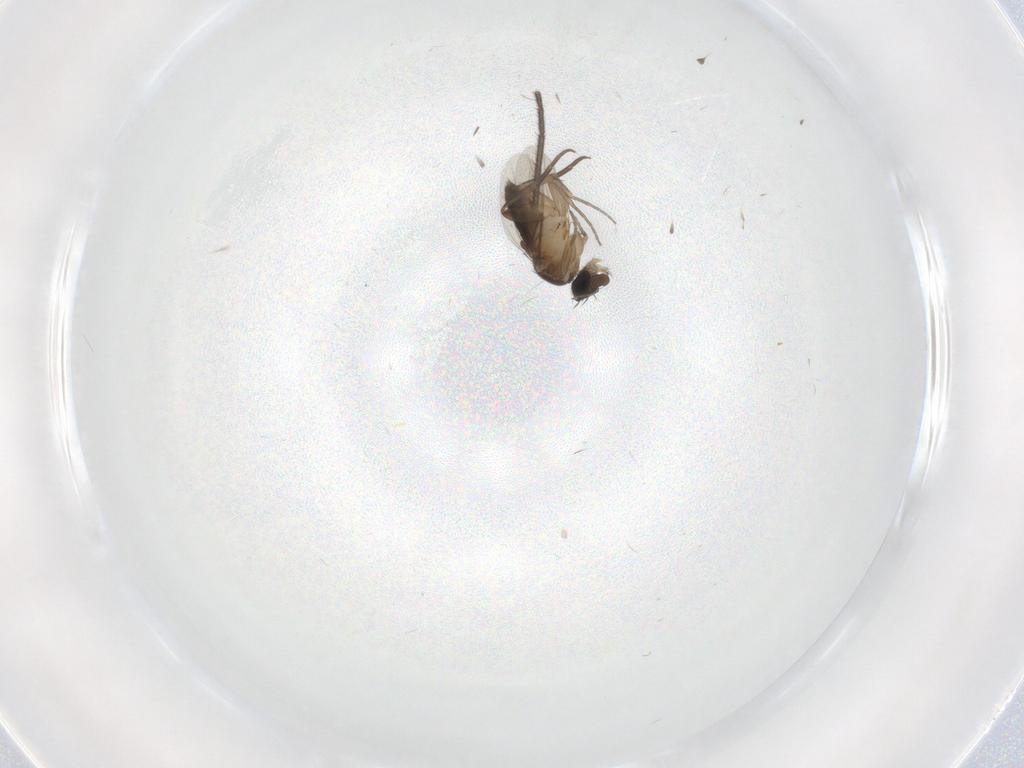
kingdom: Animalia
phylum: Arthropoda
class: Insecta
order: Diptera
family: Phoridae
